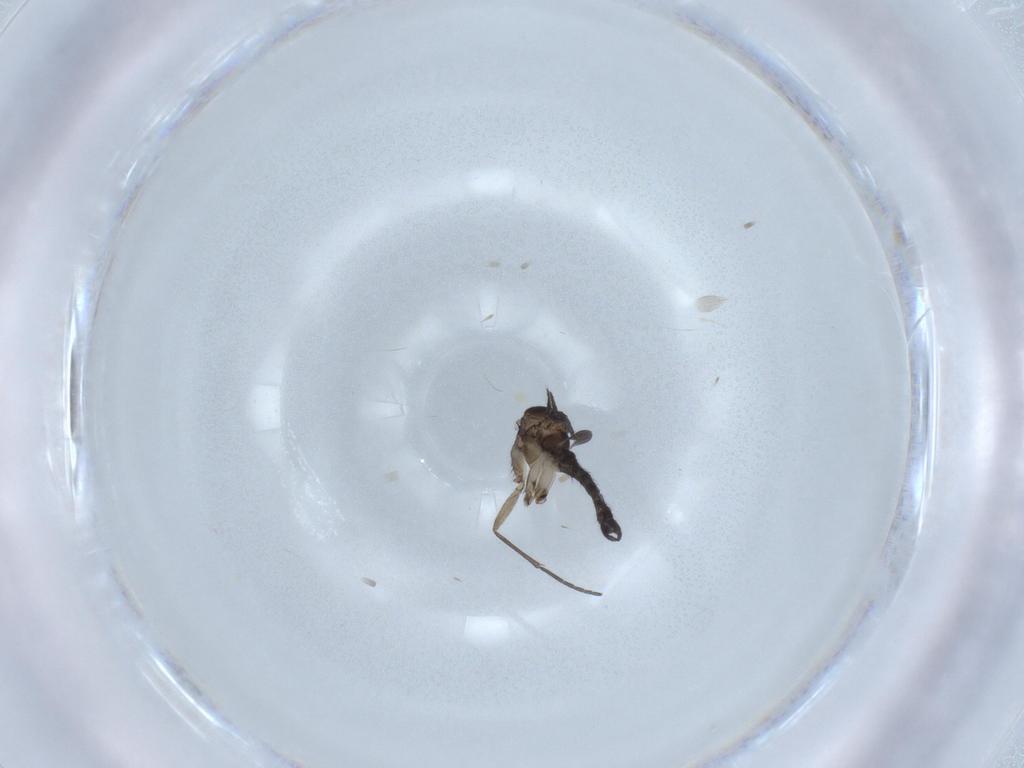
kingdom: Animalia
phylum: Arthropoda
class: Insecta
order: Diptera
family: Sciaridae
